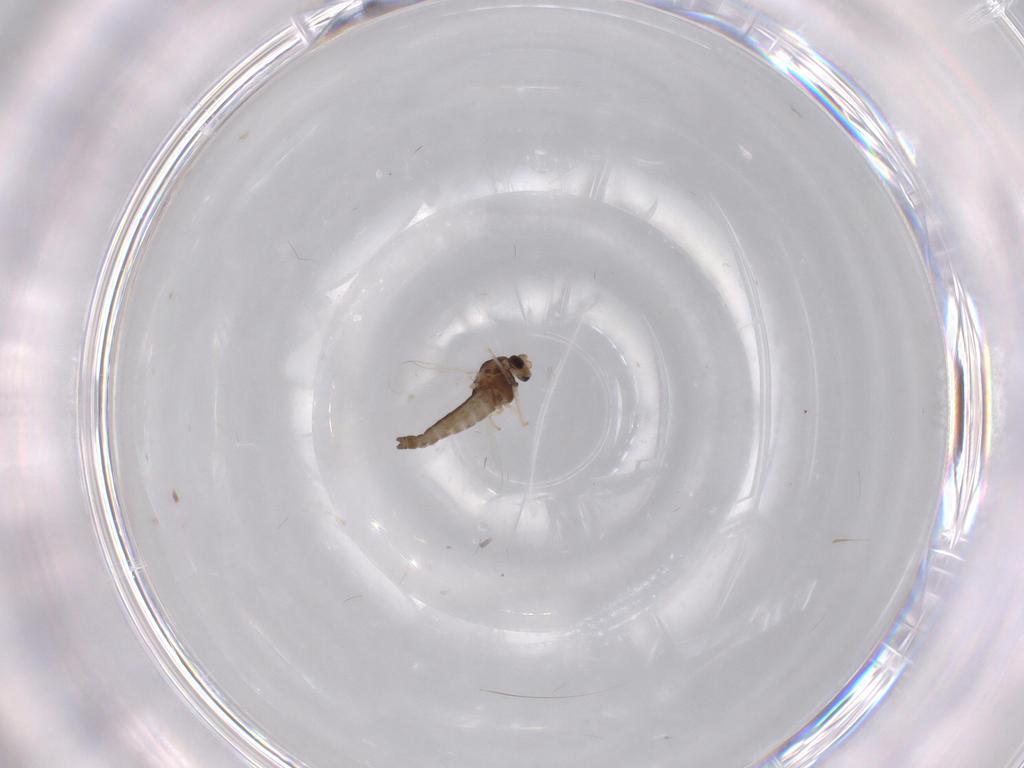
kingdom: Animalia
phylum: Arthropoda
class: Insecta
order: Diptera
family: Chironomidae
